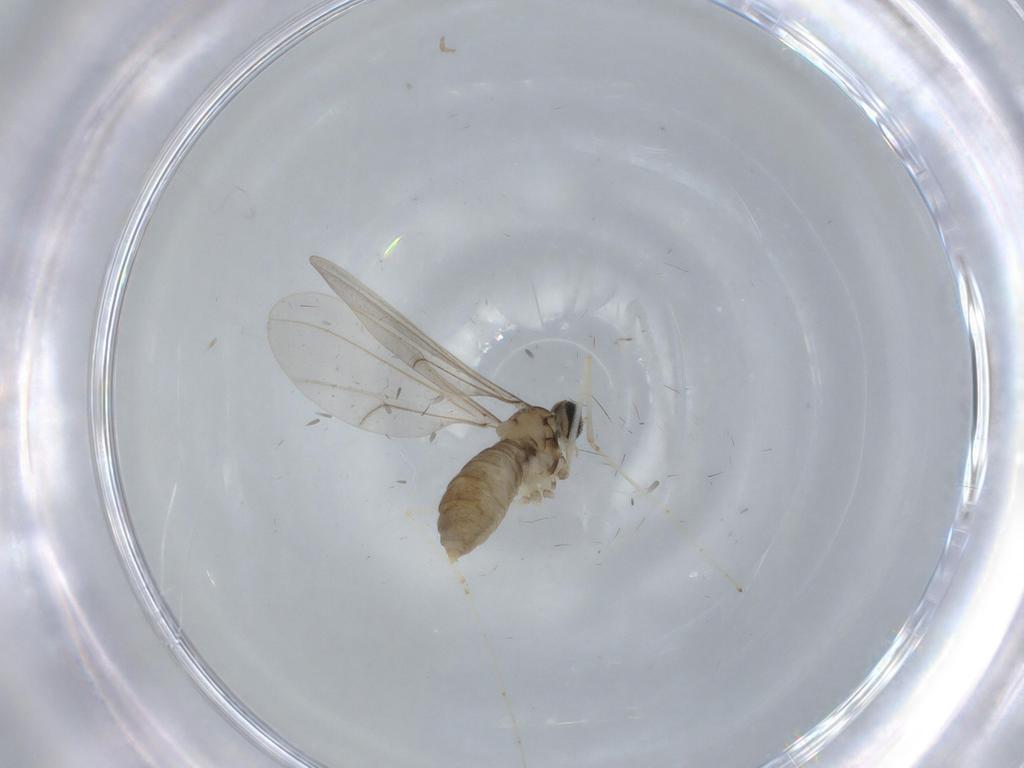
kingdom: Animalia
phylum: Arthropoda
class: Insecta
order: Diptera
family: Cecidomyiidae
